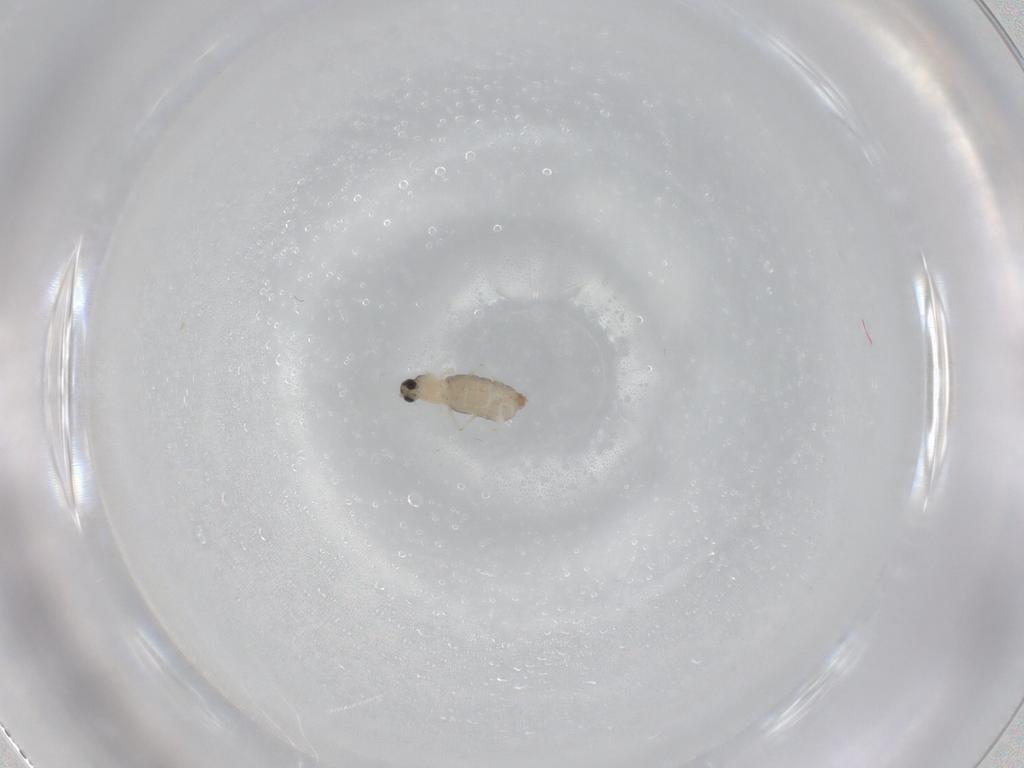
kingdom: Animalia
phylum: Arthropoda
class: Insecta
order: Diptera
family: Cecidomyiidae
